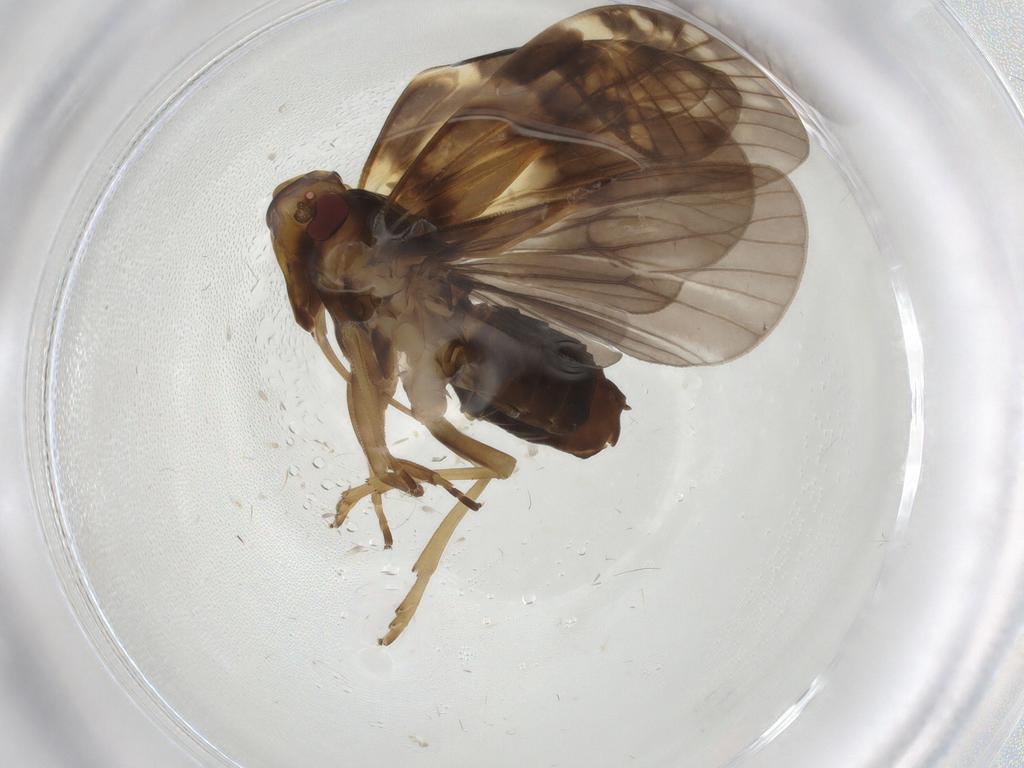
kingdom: Animalia
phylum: Arthropoda
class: Insecta
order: Hemiptera
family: Cixiidae
